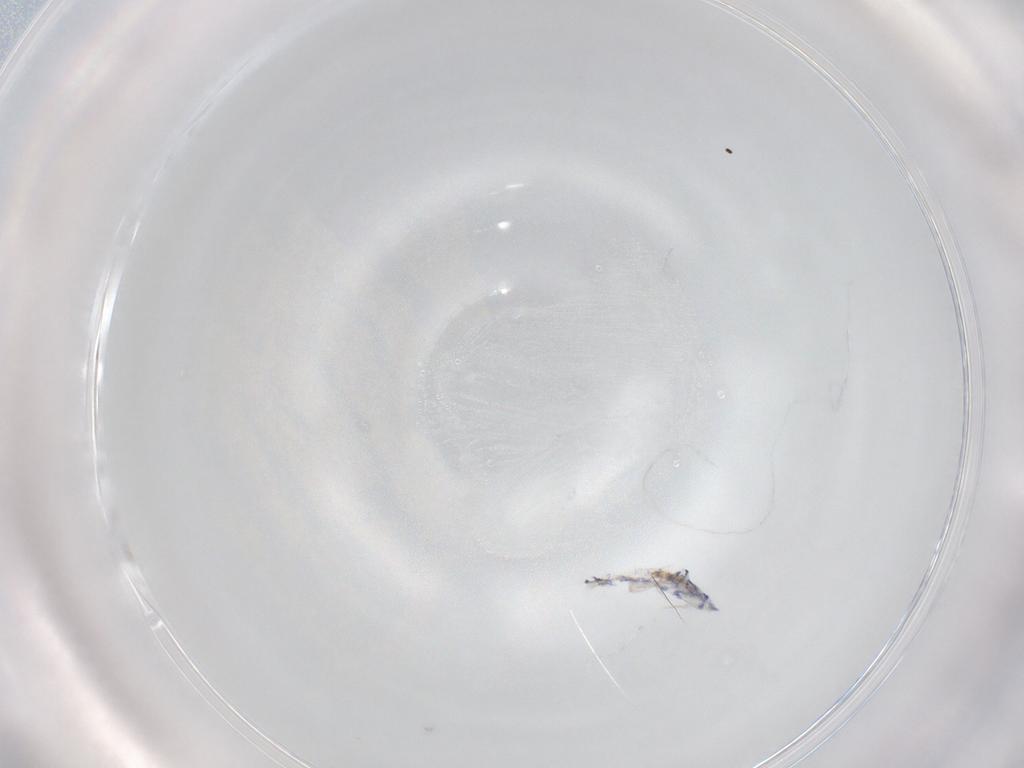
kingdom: Animalia
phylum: Arthropoda
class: Collembola
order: Entomobryomorpha
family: Entomobryidae
